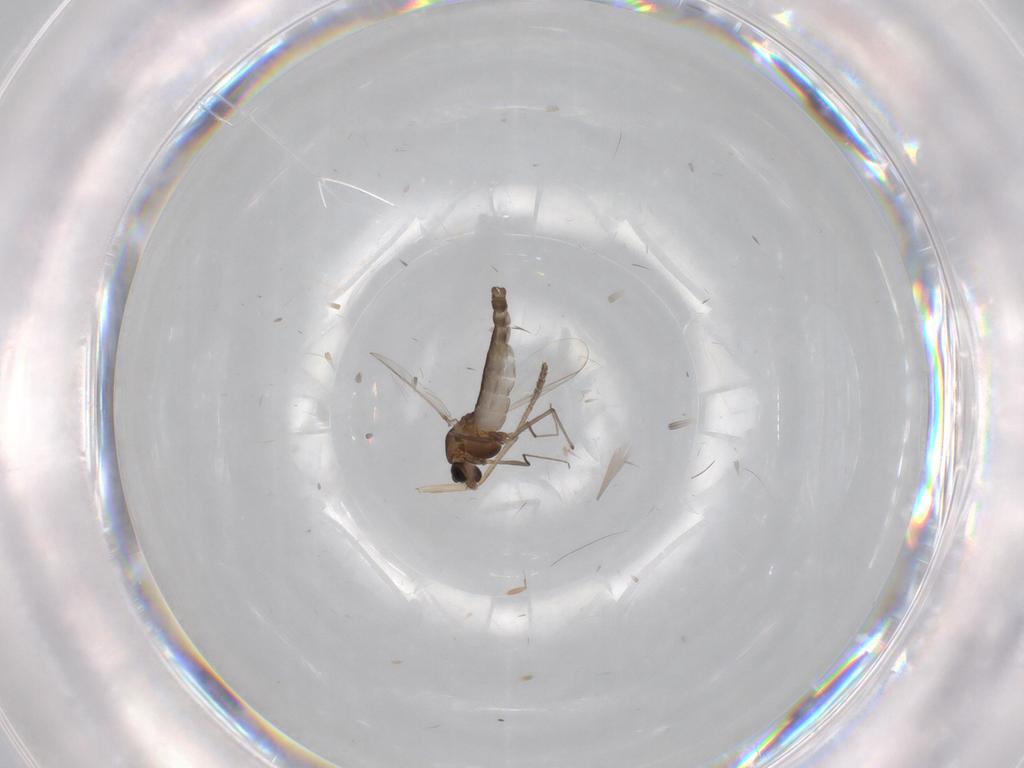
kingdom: Animalia
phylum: Arthropoda
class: Insecta
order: Diptera
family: Chironomidae
